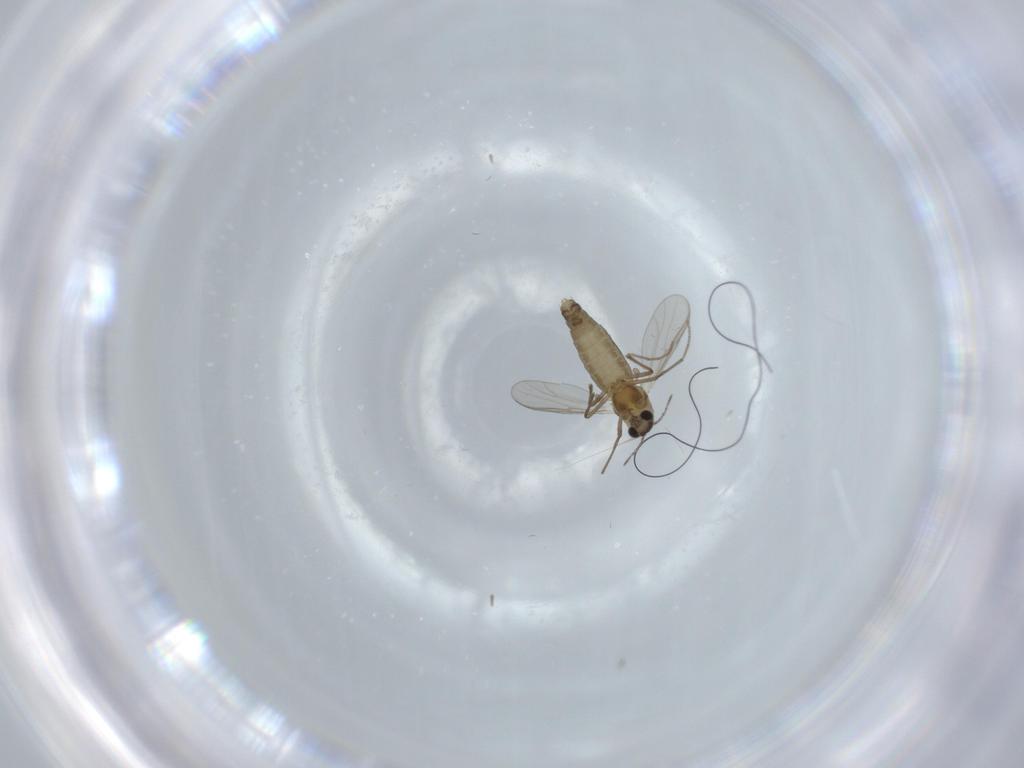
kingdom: Animalia
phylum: Arthropoda
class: Insecta
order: Diptera
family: Chironomidae
